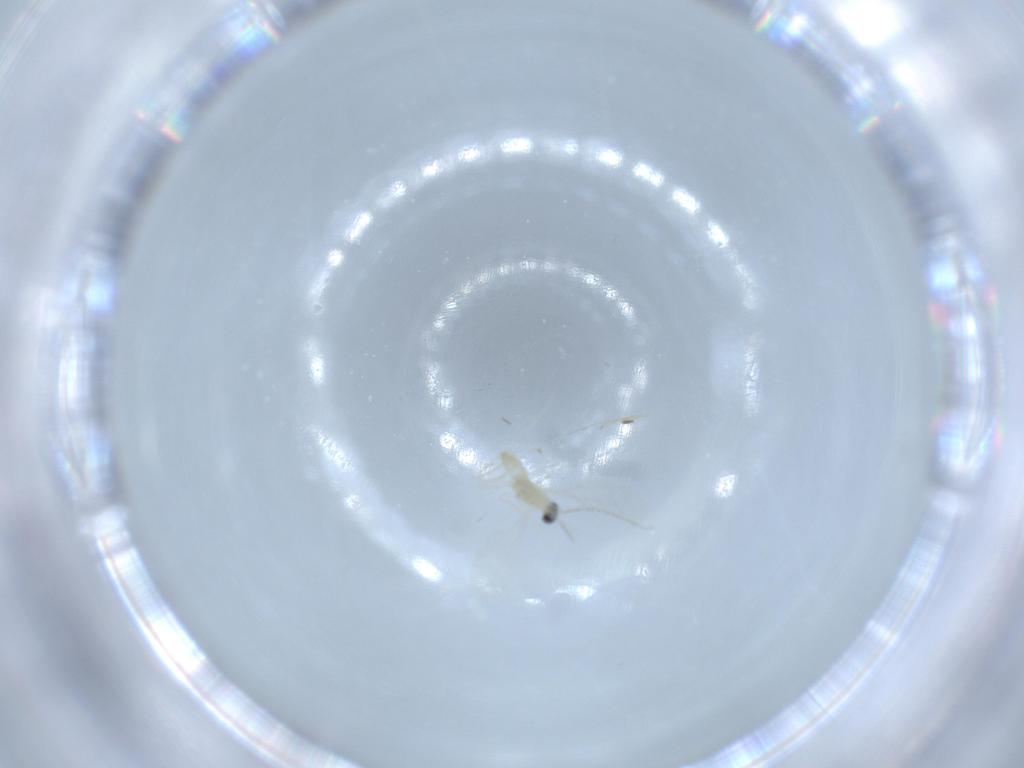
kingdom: Animalia
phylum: Arthropoda
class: Insecta
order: Diptera
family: Cecidomyiidae
